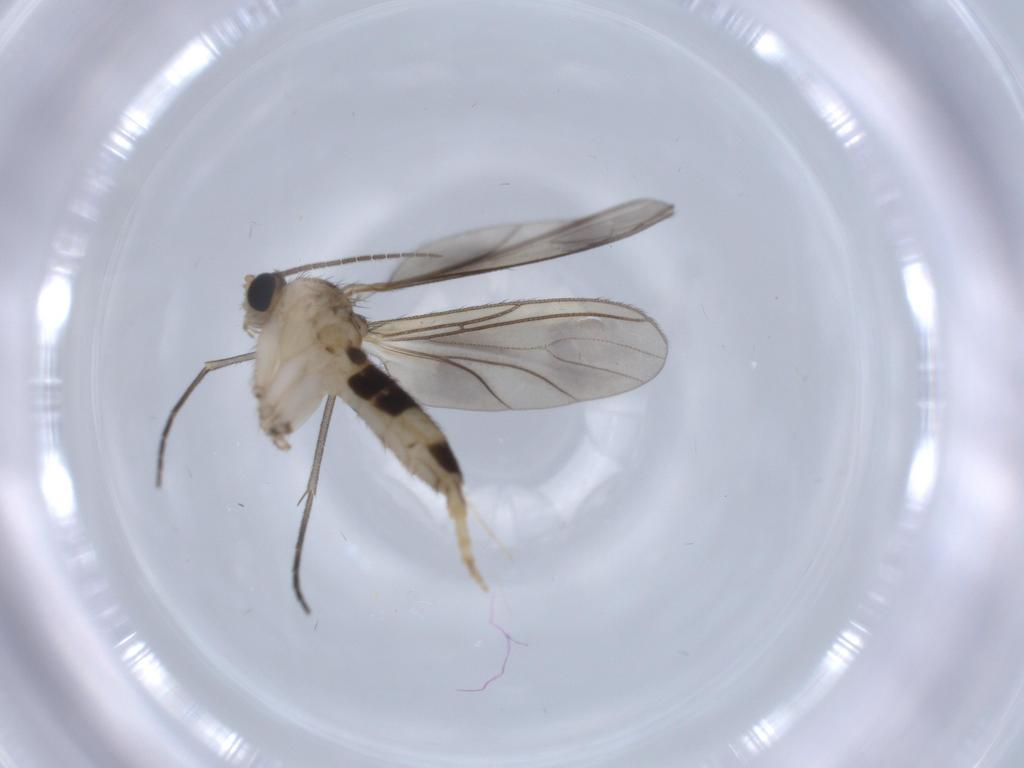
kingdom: Animalia
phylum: Arthropoda
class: Insecta
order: Diptera
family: Sciaridae
